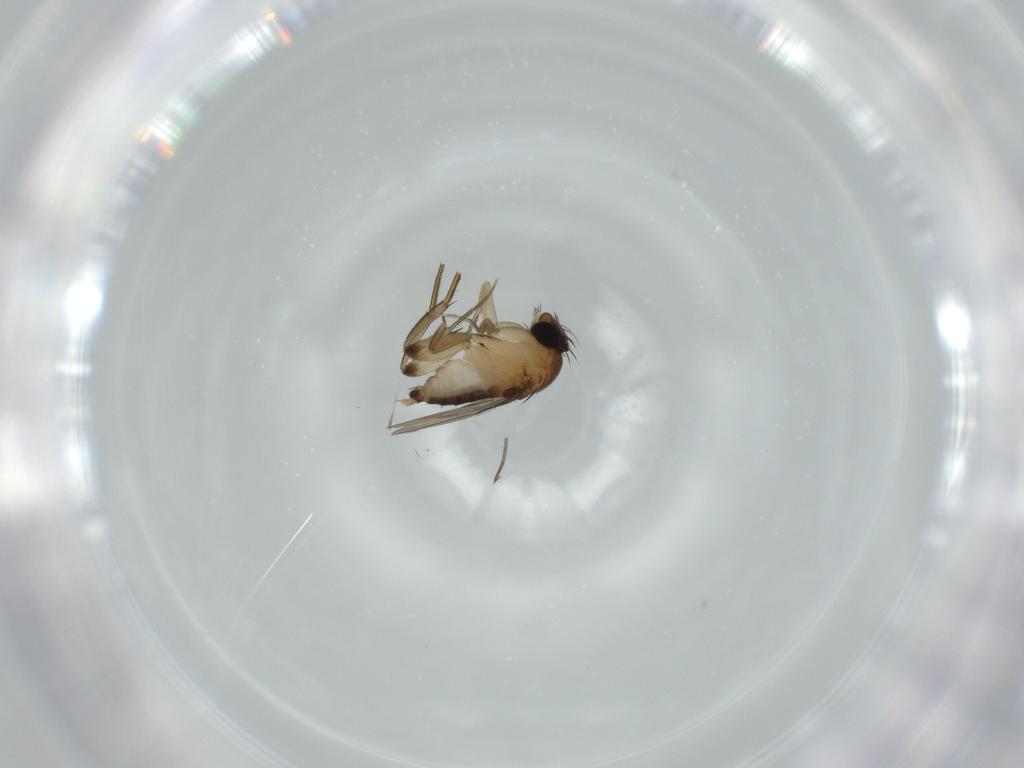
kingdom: Animalia
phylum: Arthropoda
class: Insecta
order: Diptera
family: Phoridae
